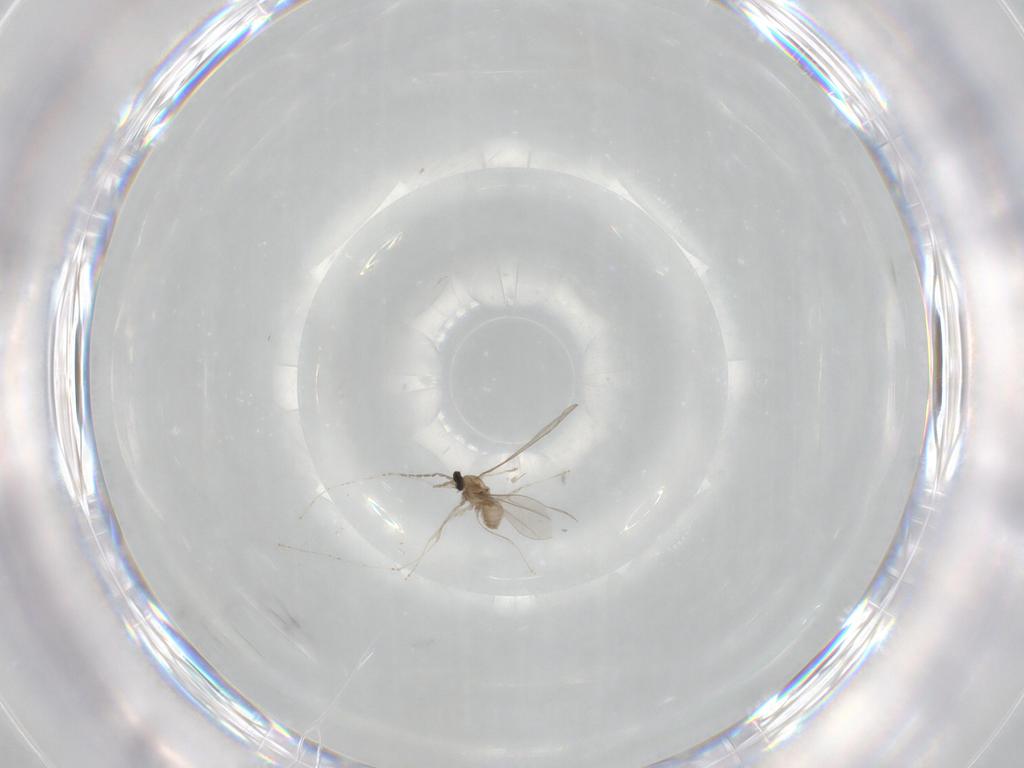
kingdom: Animalia
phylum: Arthropoda
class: Insecta
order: Diptera
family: Cecidomyiidae
